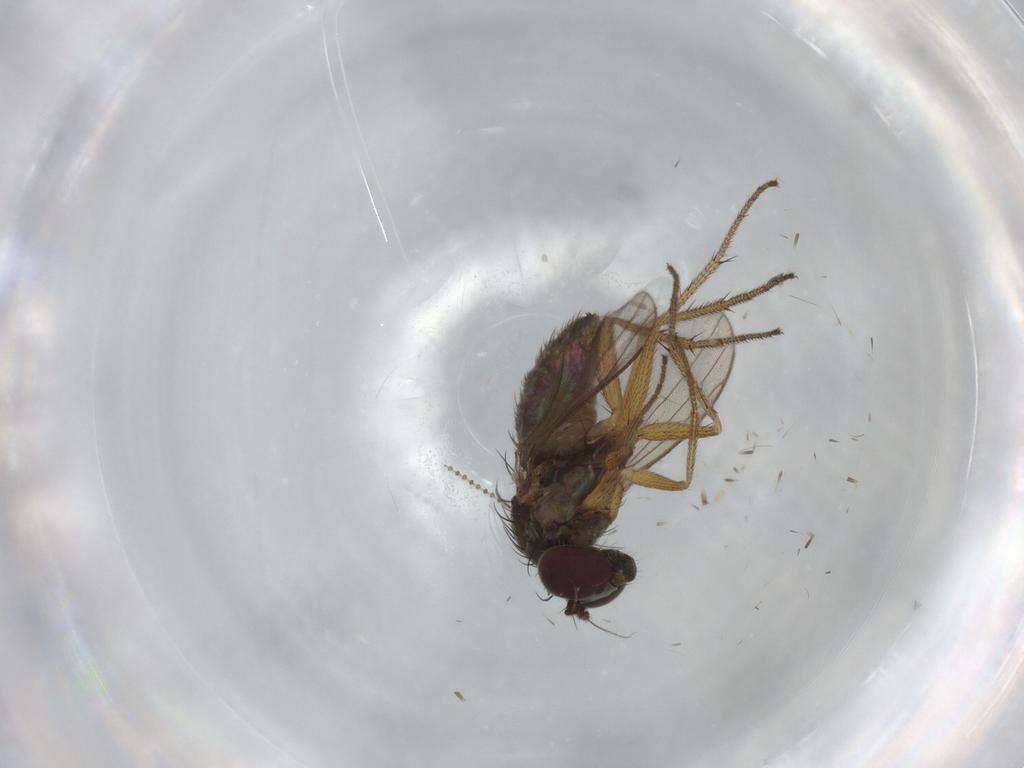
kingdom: Animalia
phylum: Arthropoda
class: Insecta
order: Diptera
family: Dolichopodidae
